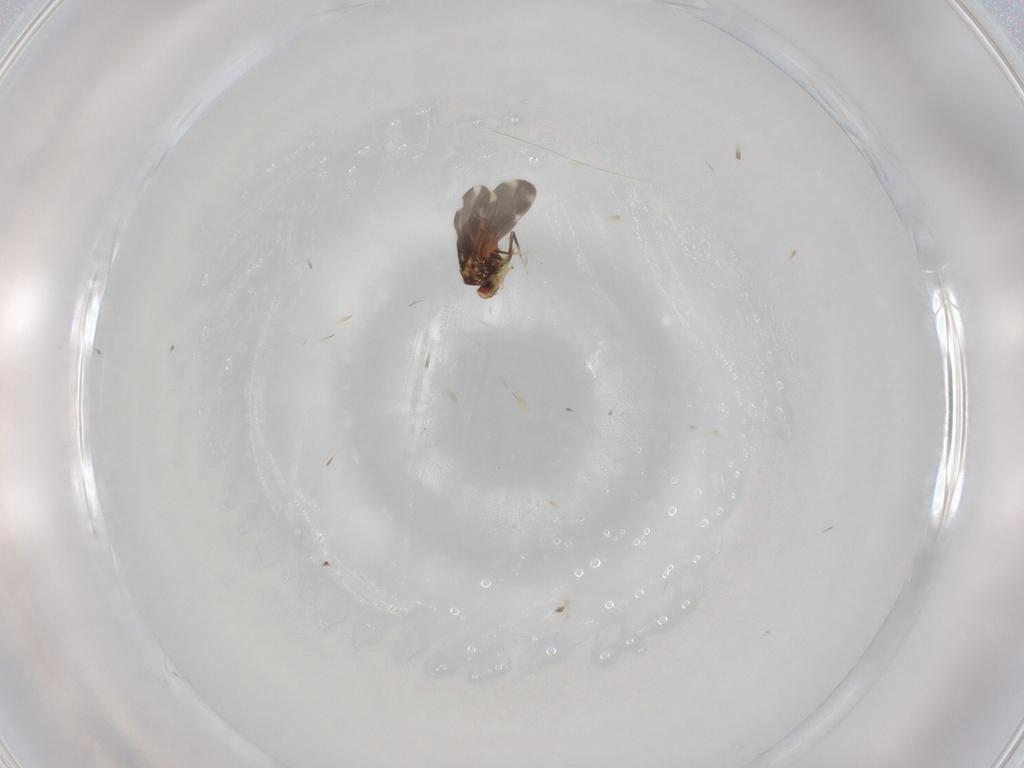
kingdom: Animalia
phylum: Arthropoda
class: Insecta
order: Hemiptera
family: Aleyrodidae
